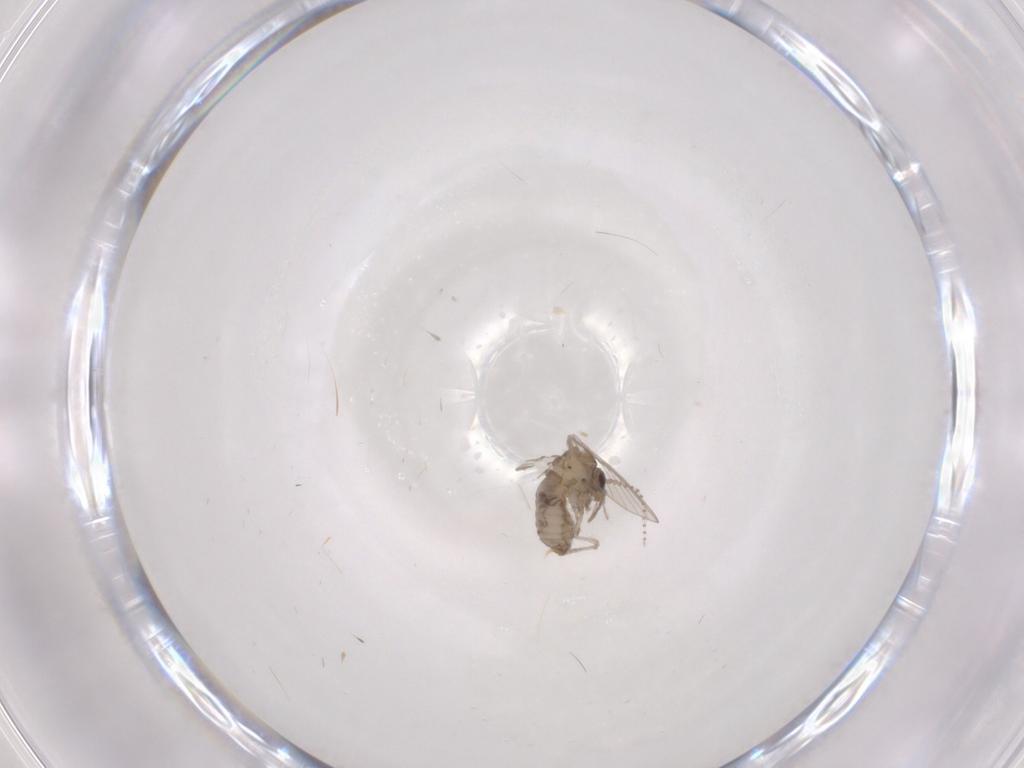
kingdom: Animalia
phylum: Arthropoda
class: Insecta
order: Diptera
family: Psychodidae
